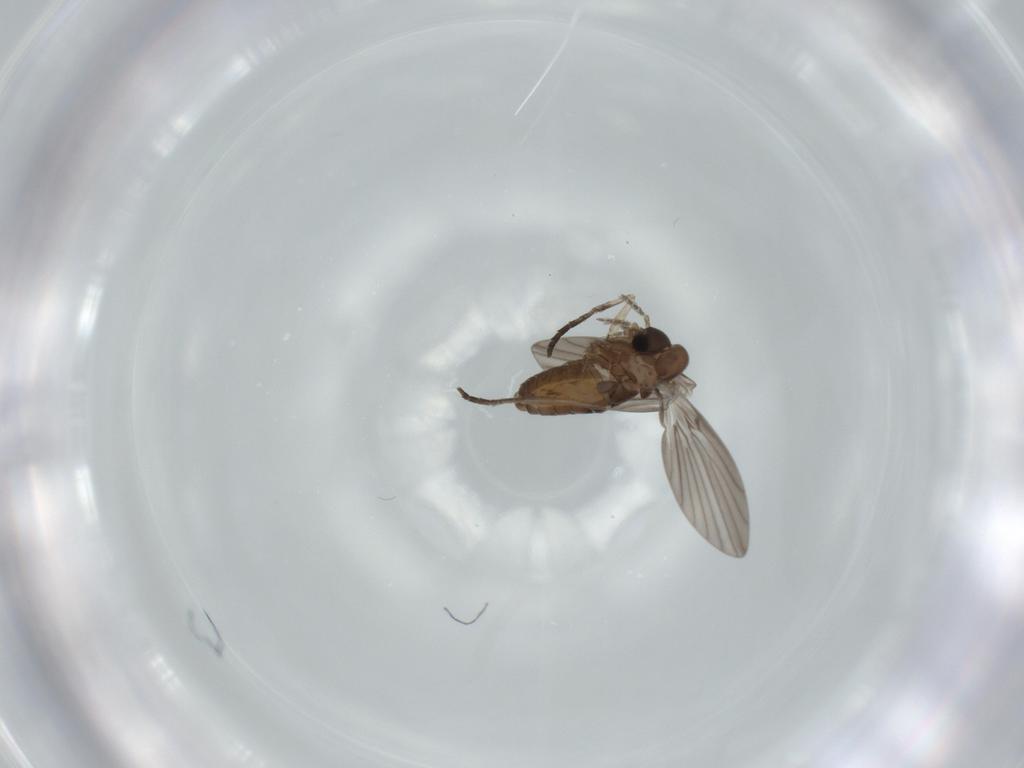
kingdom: Animalia
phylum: Arthropoda
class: Insecta
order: Diptera
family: Psychodidae
